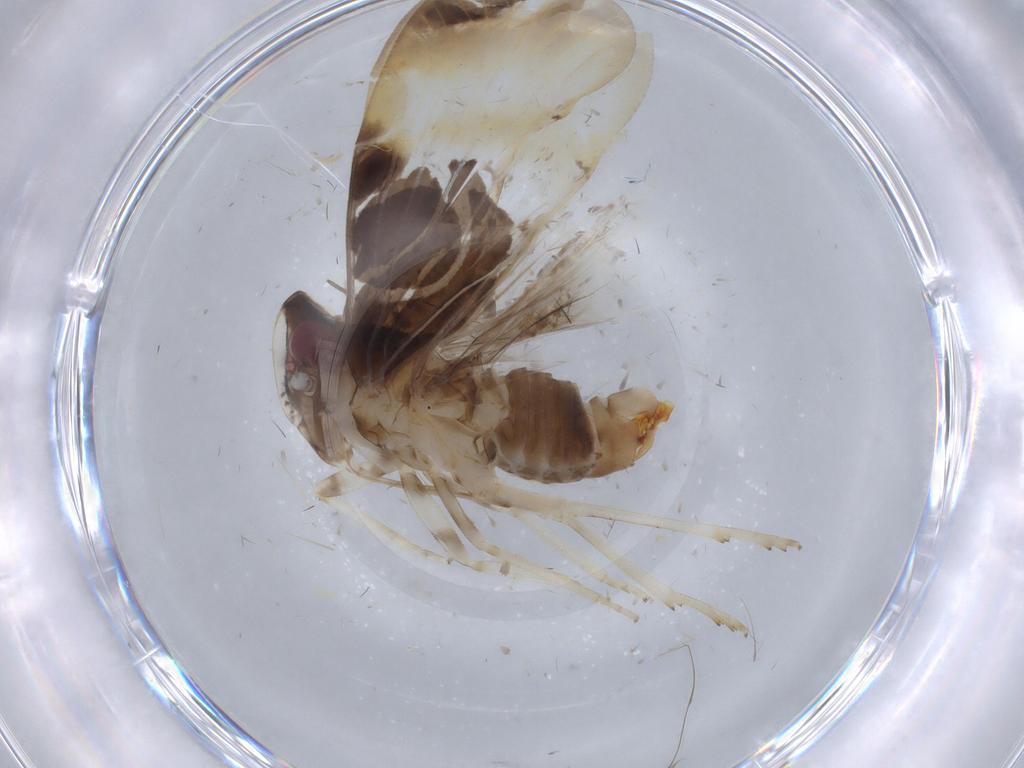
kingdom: Animalia
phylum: Arthropoda
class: Insecta
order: Hemiptera
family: Cixiidae
